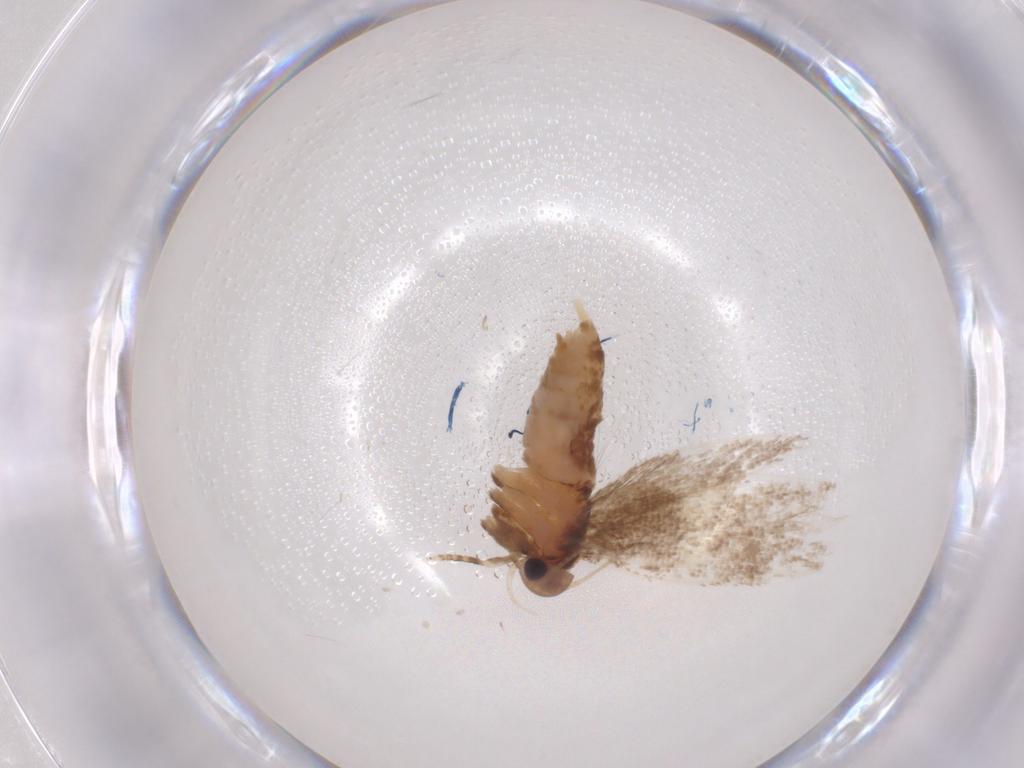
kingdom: Animalia
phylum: Arthropoda
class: Insecta
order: Lepidoptera
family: Oecophoridae
